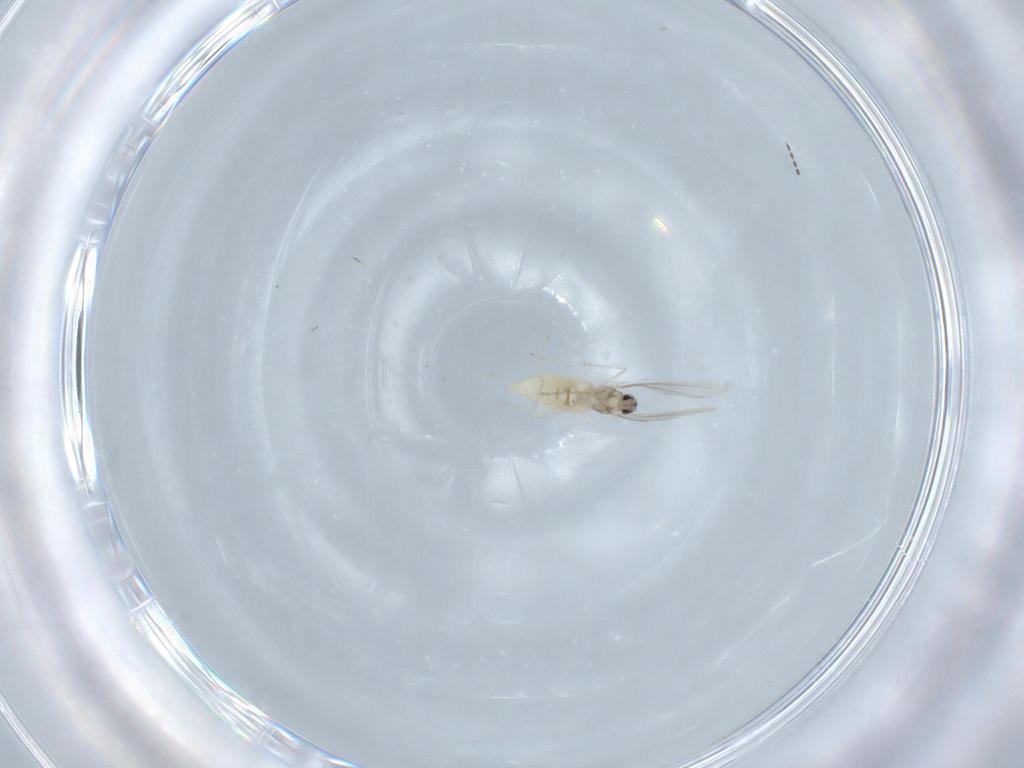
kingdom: Animalia
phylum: Arthropoda
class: Insecta
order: Diptera
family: Cecidomyiidae
